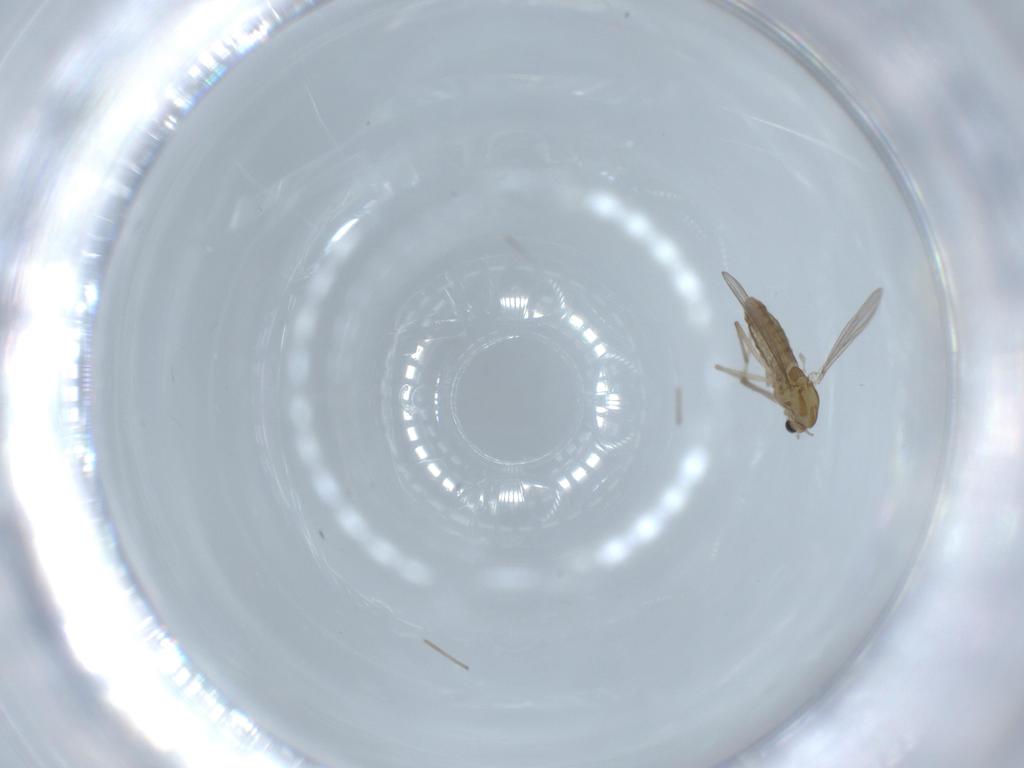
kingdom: Animalia
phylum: Arthropoda
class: Insecta
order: Diptera
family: Chironomidae
